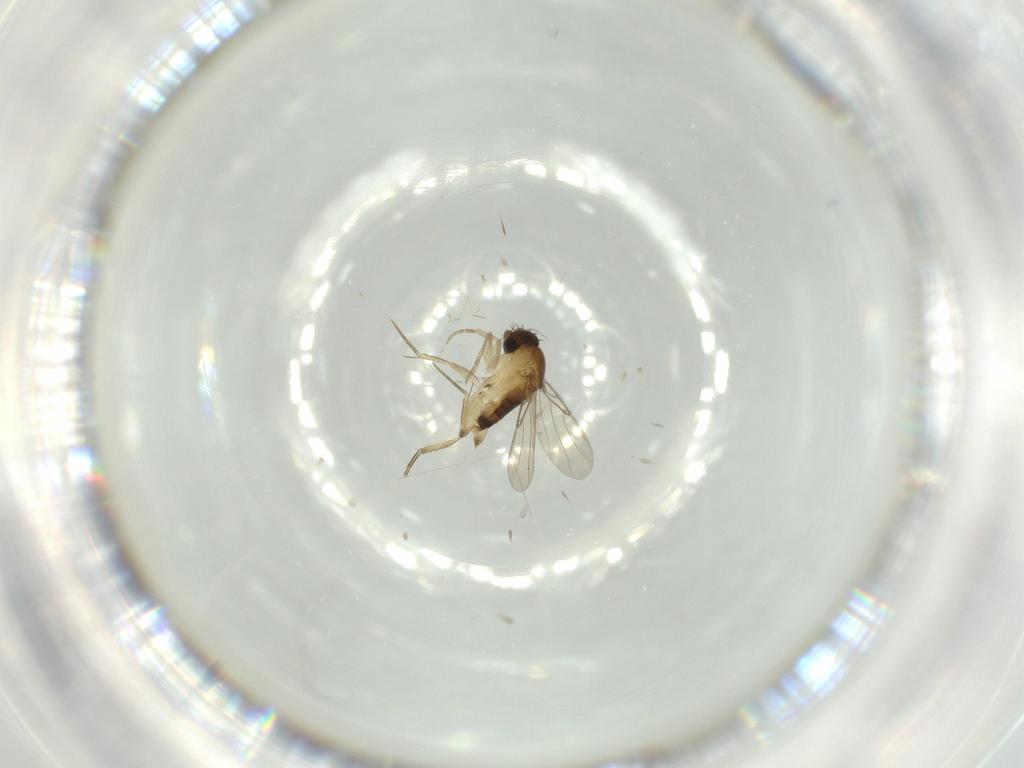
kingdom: Animalia
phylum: Arthropoda
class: Insecta
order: Diptera
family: Phoridae
